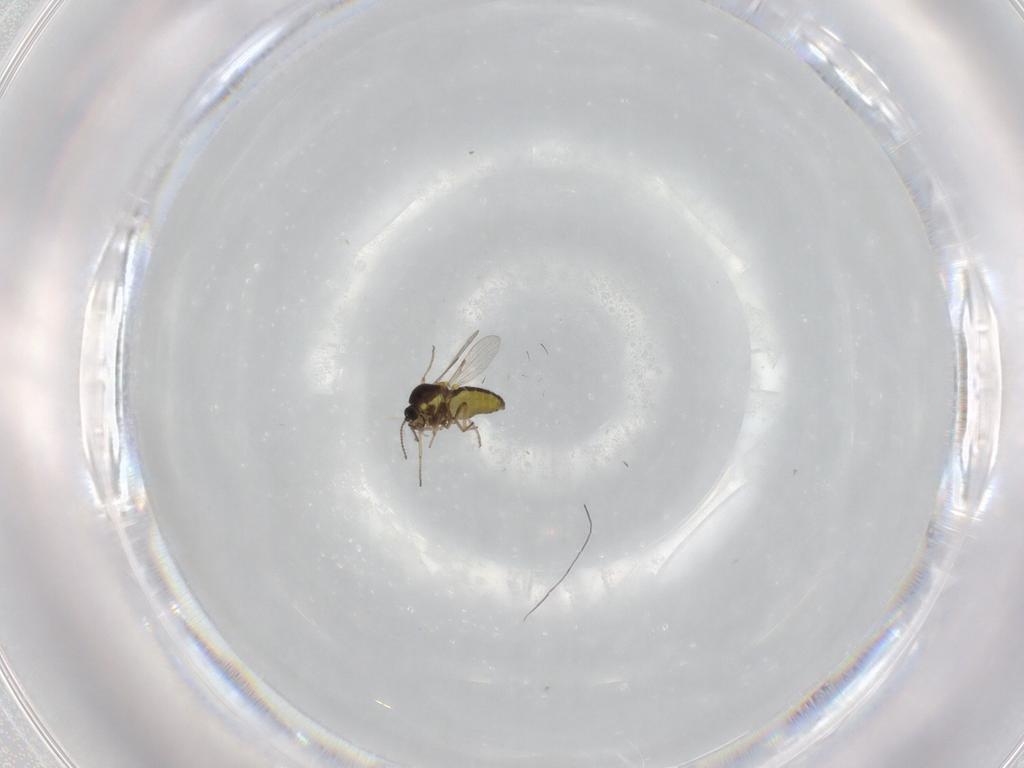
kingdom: Animalia
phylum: Arthropoda
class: Insecta
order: Diptera
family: Ceratopogonidae
